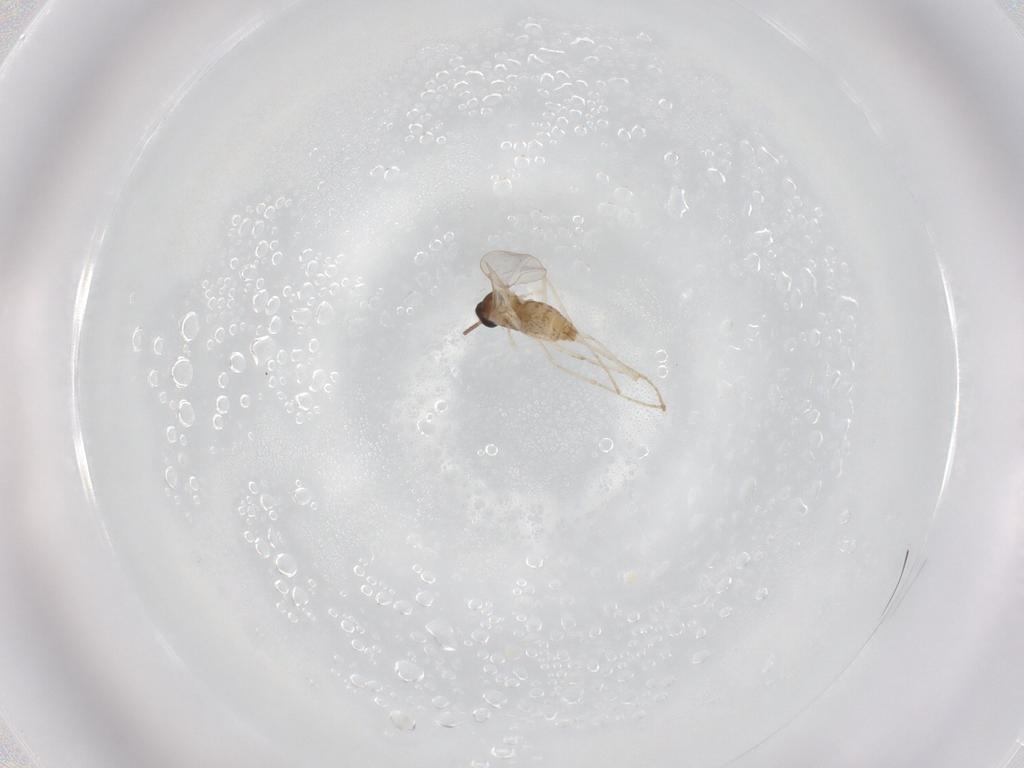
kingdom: Animalia
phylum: Arthropoda
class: Insecta
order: Diptera
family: Cecidomyiidae
